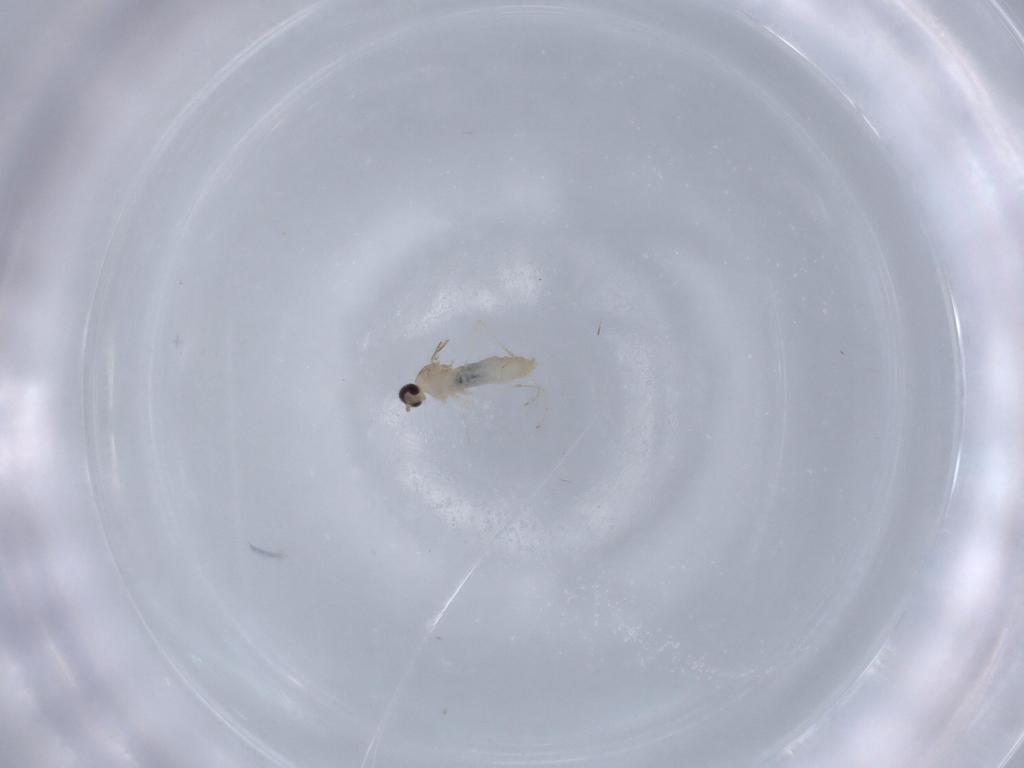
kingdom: Animalia
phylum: Arthropoda
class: Insecta
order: Diptera
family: Cecidomyiidae
